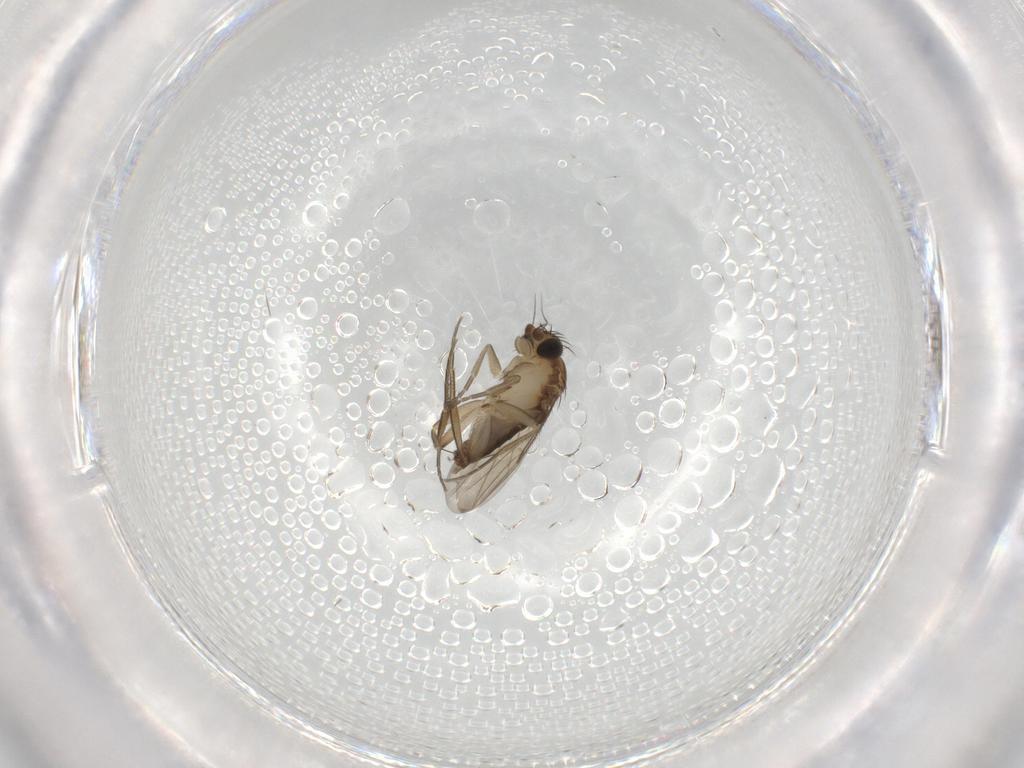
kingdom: Animalia
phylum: Arthropoda
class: Insecta
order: Diptera
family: Phoridae
